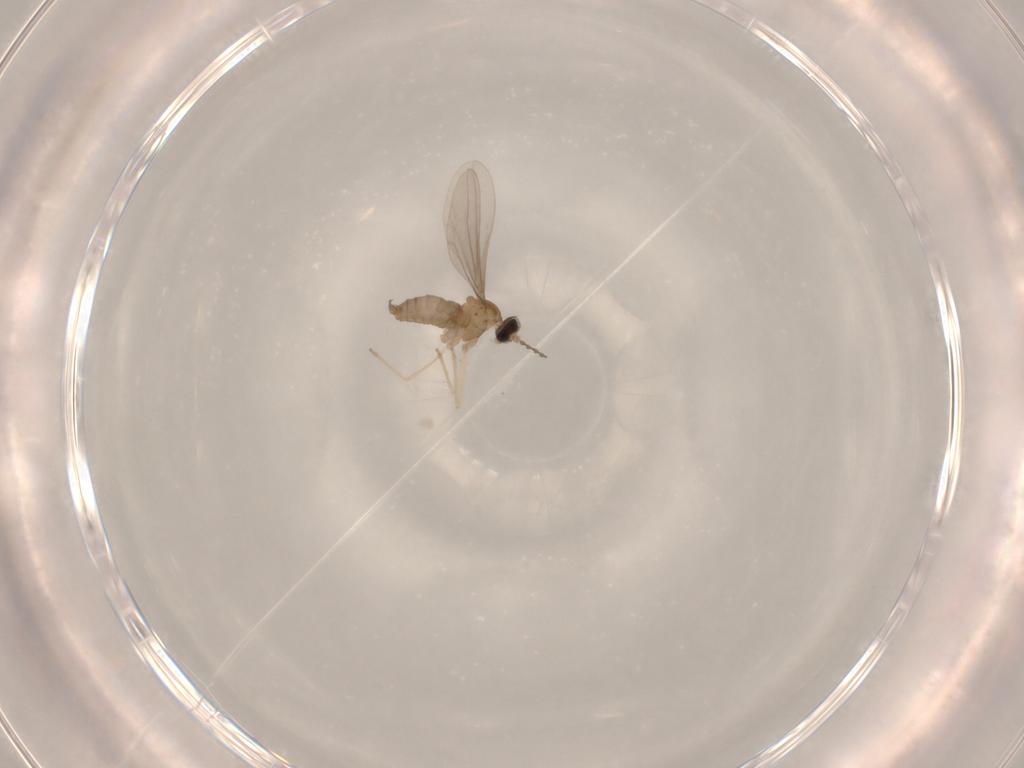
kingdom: Animalia
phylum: Arthropoda
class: Insecta
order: Diptera
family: Cecidomyiidae
